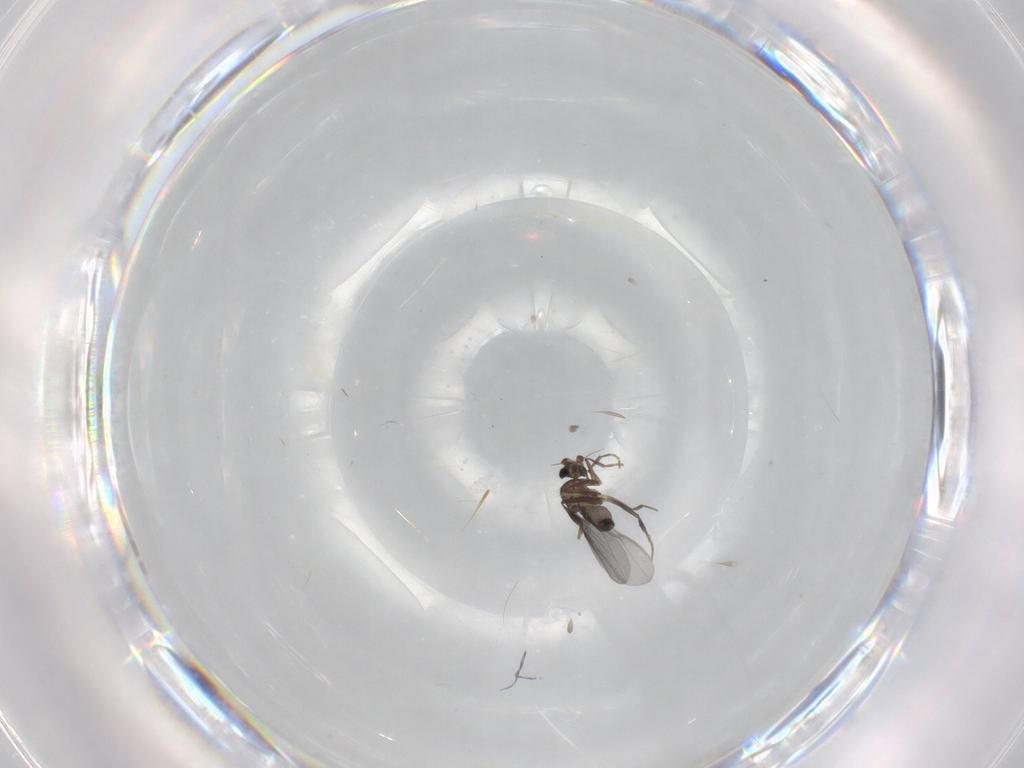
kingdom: Animalia
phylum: Arthropoda
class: Insecta
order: Diptera
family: Phoridae
